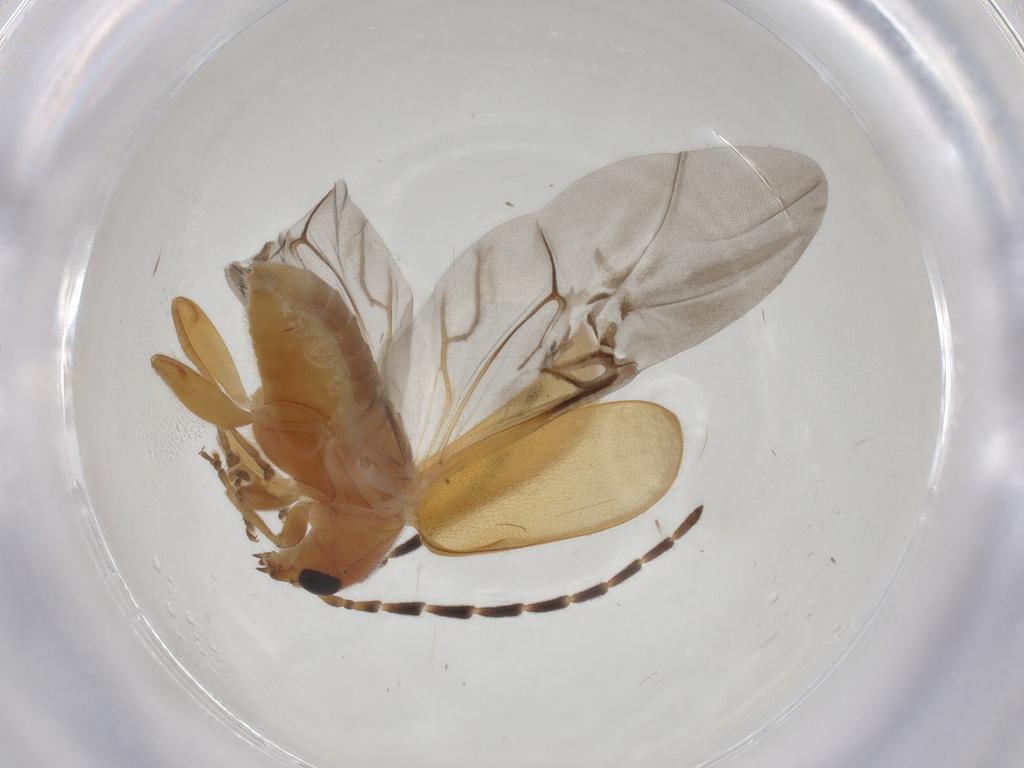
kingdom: Animalia
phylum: Arthropoda
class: Insecta
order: Coleoptera
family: Chrysomelidae
